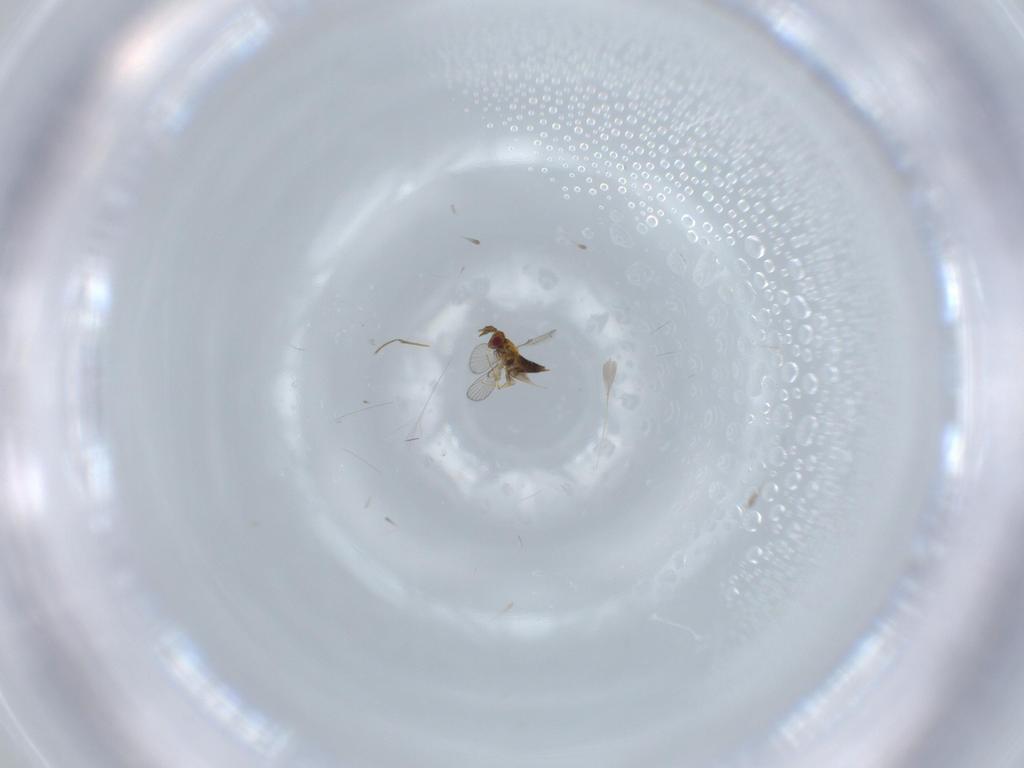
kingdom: Animalia
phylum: Arthropoda
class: Insecta
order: Hymenoptera
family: Trichogrammatidae
